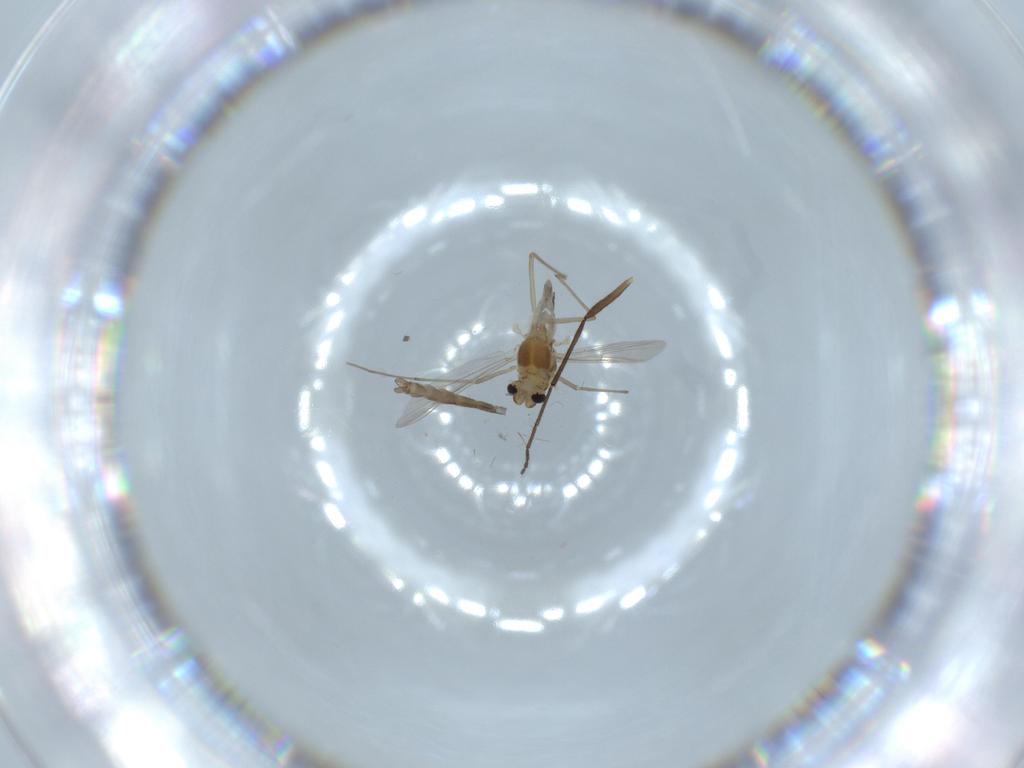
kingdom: Animalia
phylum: Arthropoda
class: Insecta
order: Diptera
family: Chironomidae
